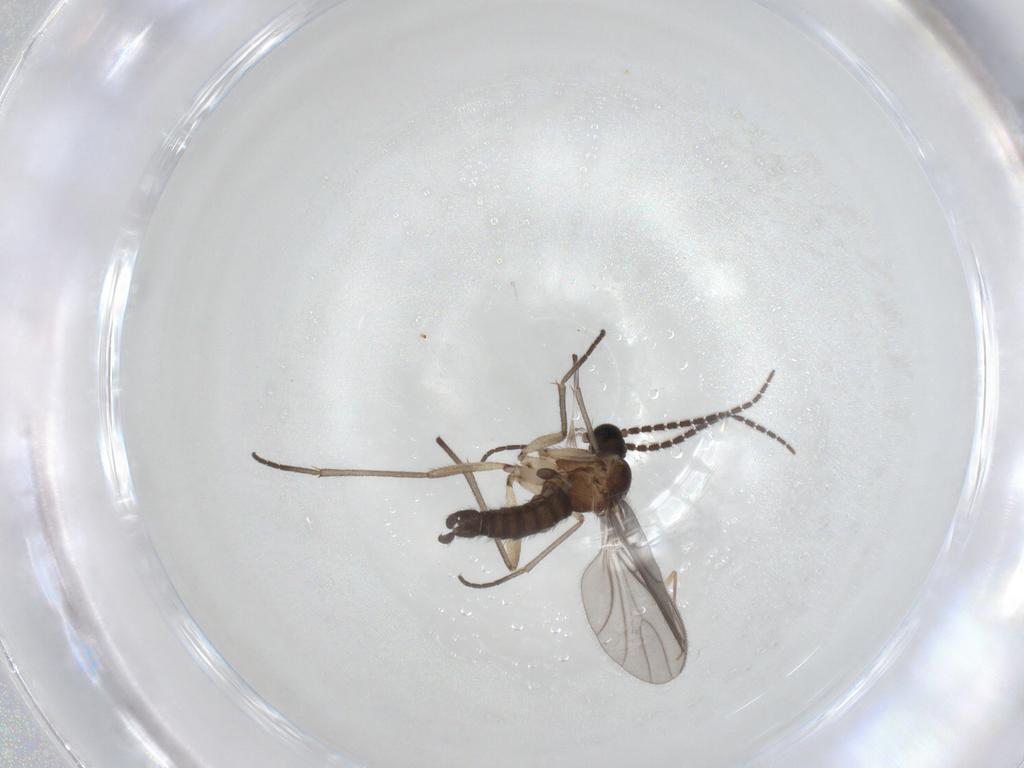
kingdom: Animalia
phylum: Arthropoda
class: Insecta
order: Diptera
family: Sciaridae
